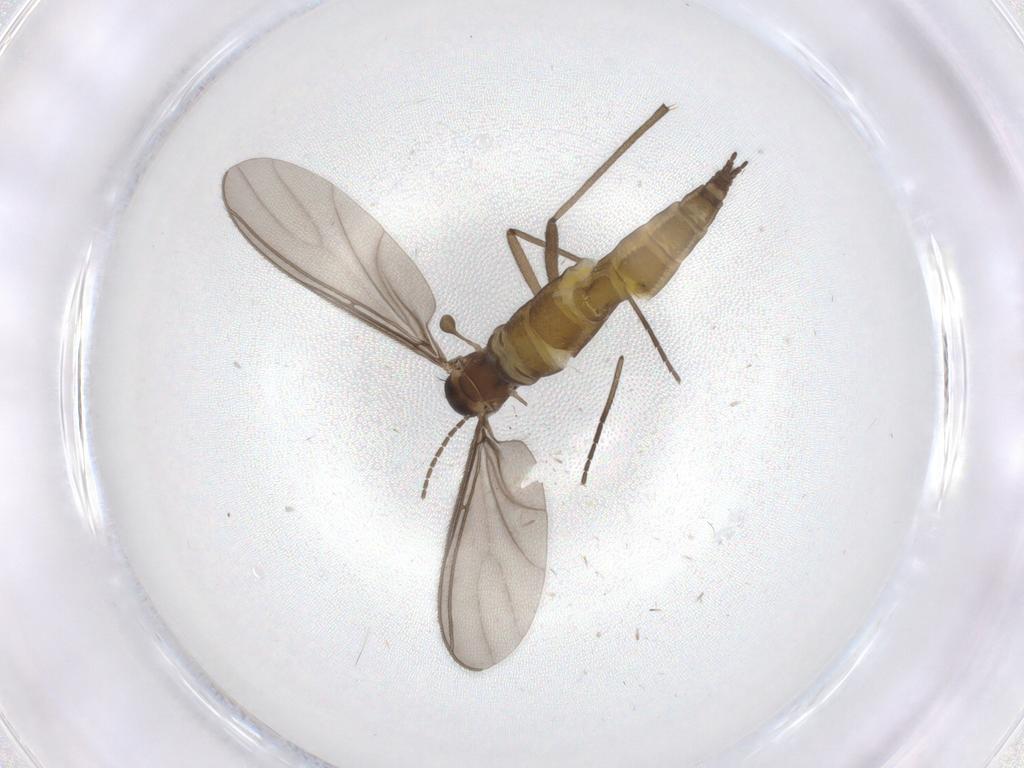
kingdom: Animalia
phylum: Arthropoda
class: Insecta
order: Diptera
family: Sciaridae
